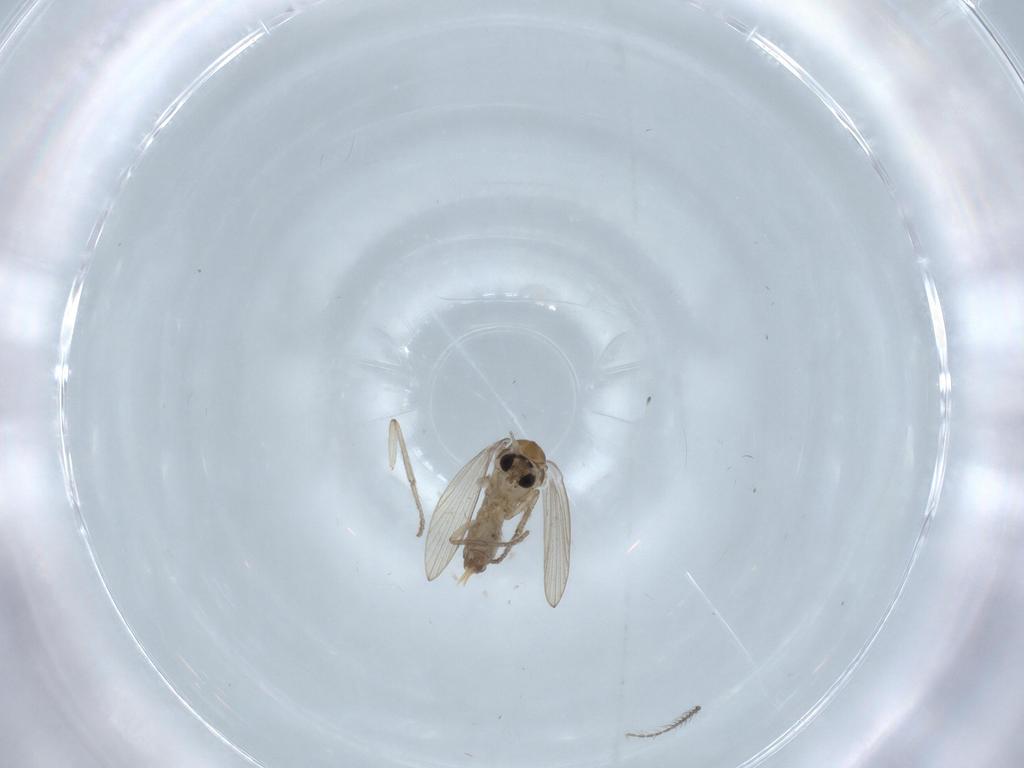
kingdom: Animalia
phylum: Arthropoda
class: Insecta
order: Diptera
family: Ceratopogonidae
